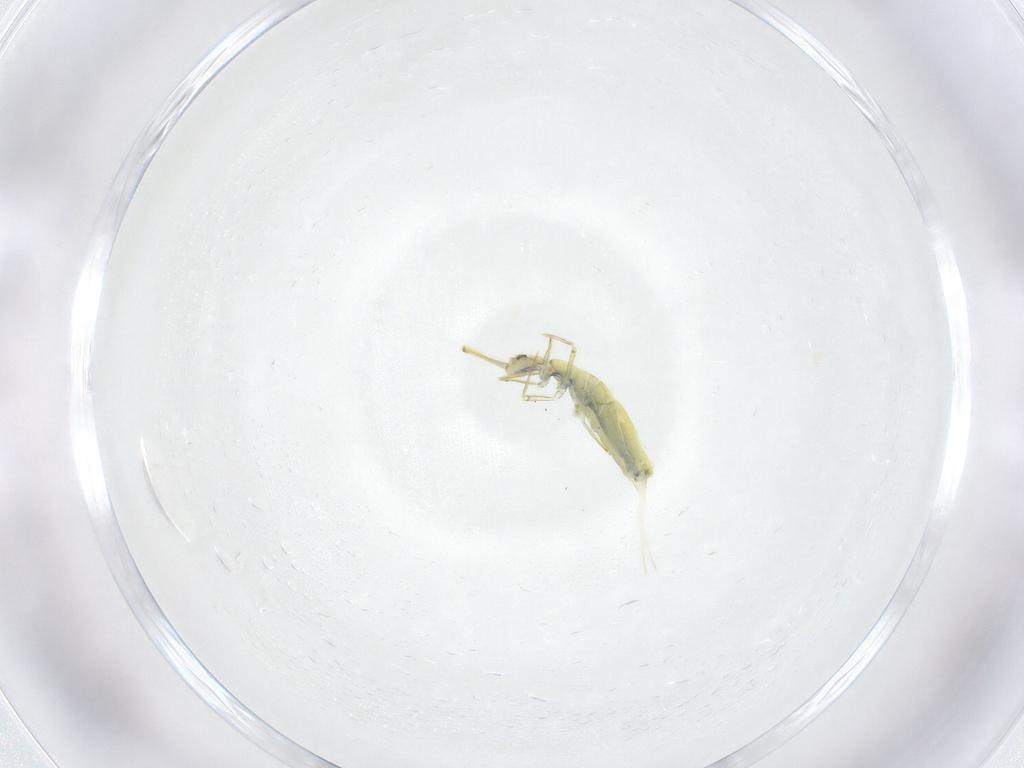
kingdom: Animalia
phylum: Arthropoda
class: Collembola
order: Entomobryomorpha
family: Paronellidae
